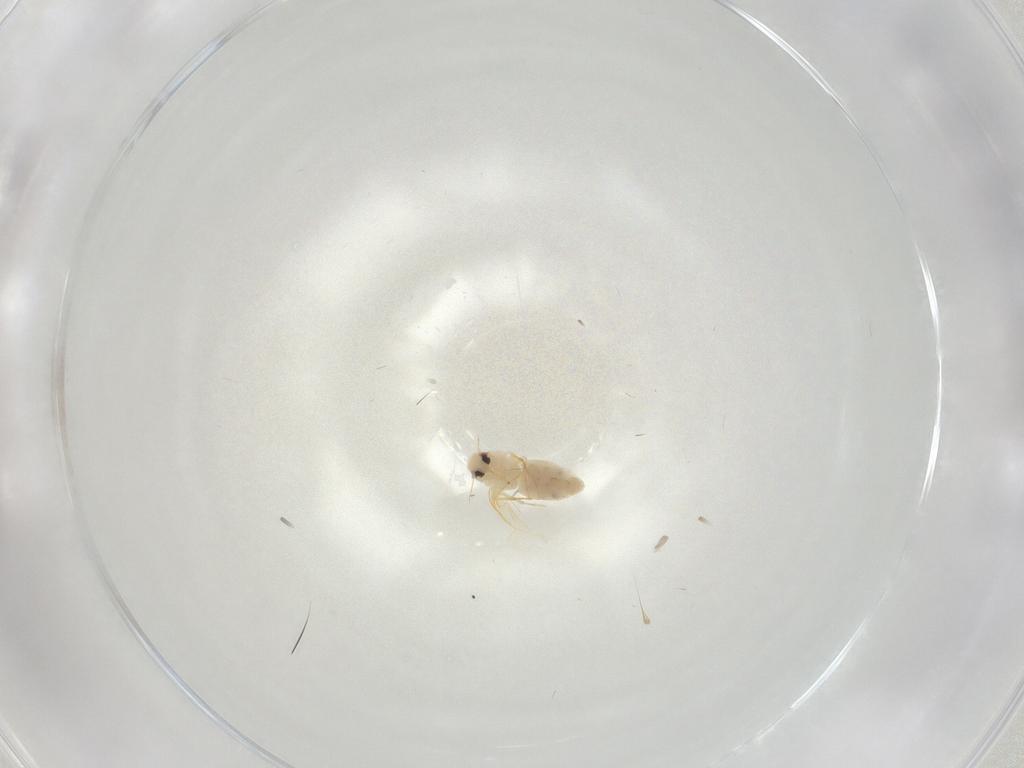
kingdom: Animalia
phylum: Arthropoda
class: Insecta
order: Hemiptera
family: Aleyrodidae
